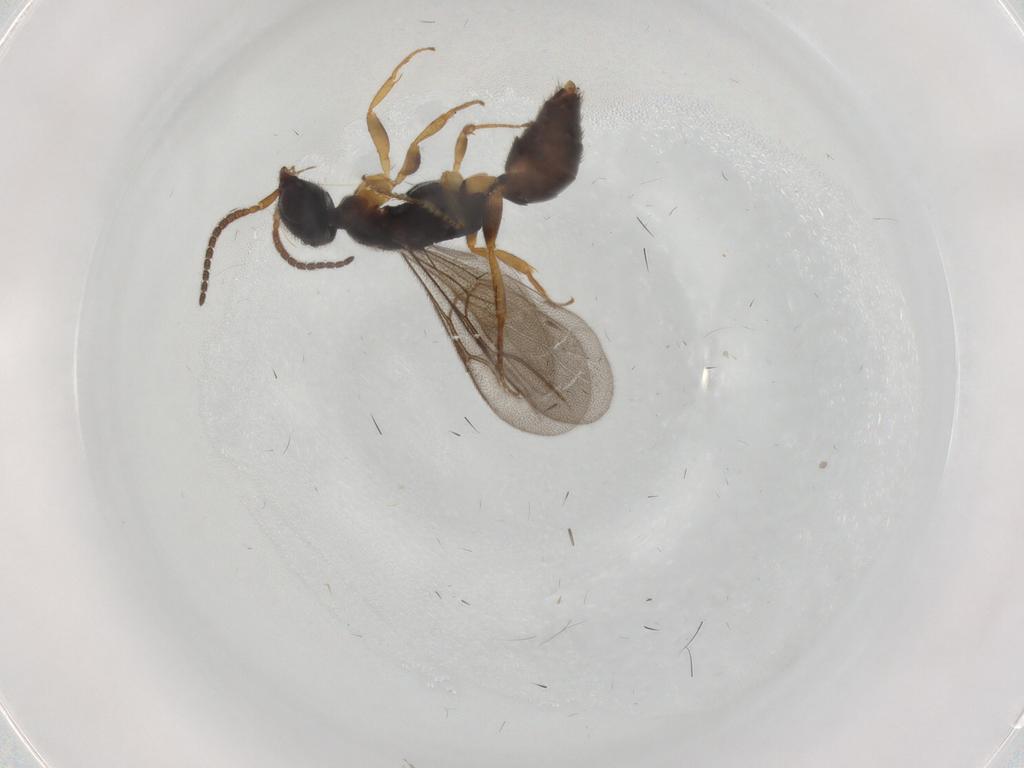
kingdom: Animalia
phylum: Arthropoda
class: Insecta
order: Hymenoptera
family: Bethylidae
